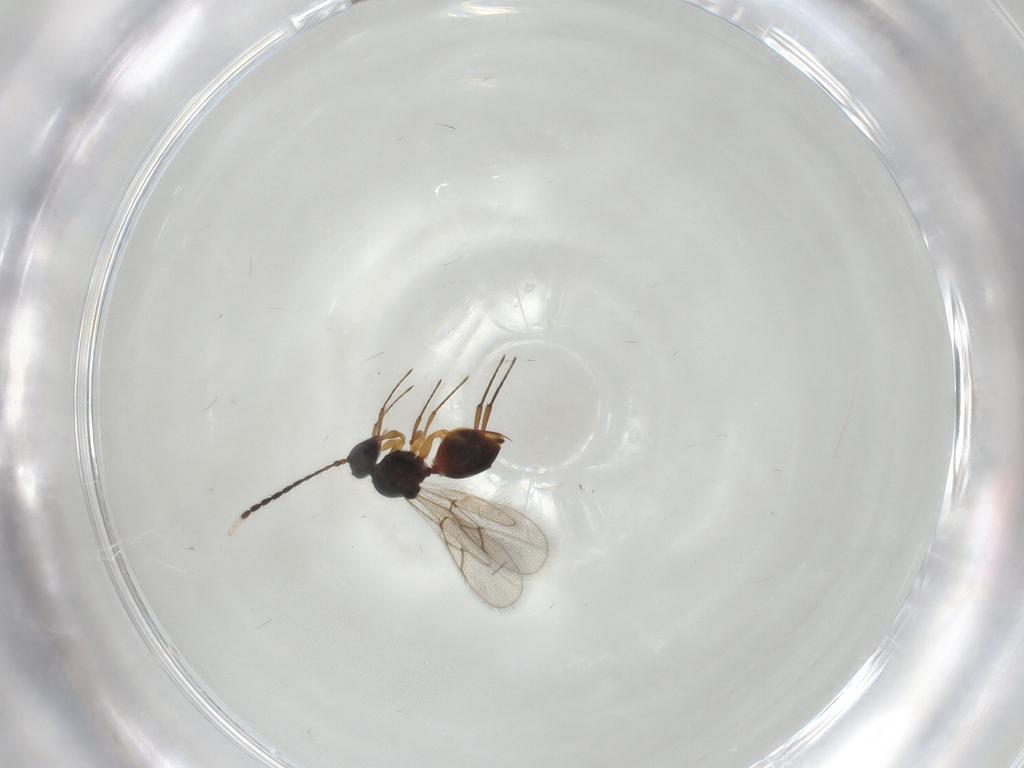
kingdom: Animalia
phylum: Arthropoda
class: Insecta
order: Hymenoptera
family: Figitidae
